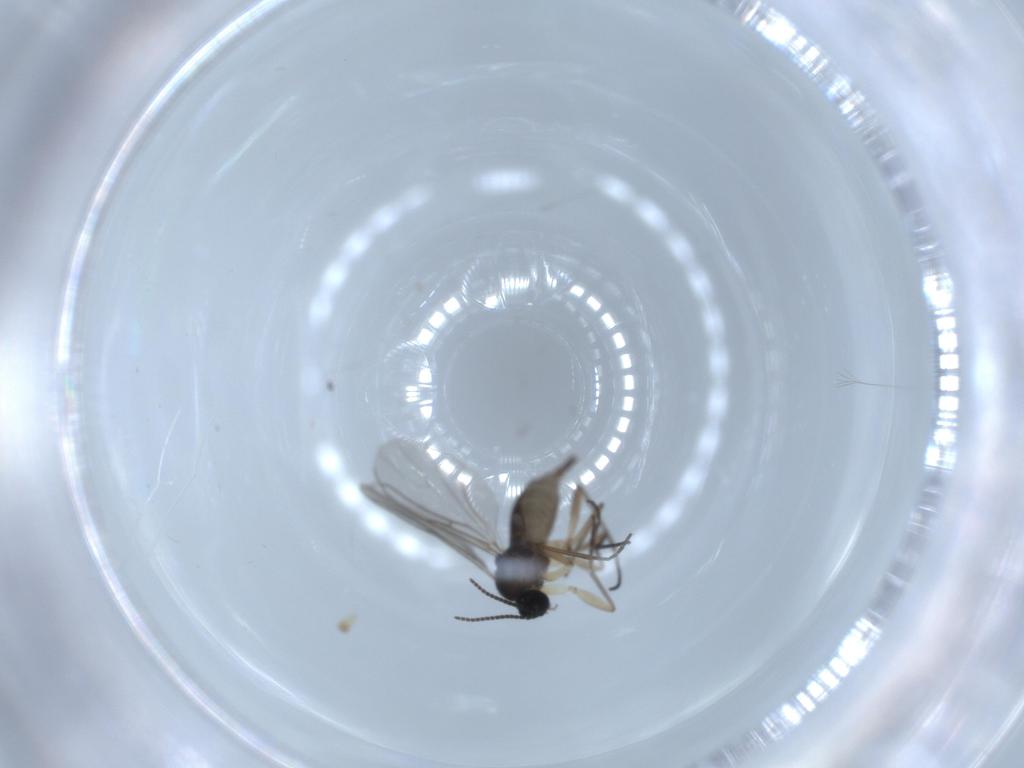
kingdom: Animalia
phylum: Arthropoda
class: Insecta
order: Diptera
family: Sciaridae
